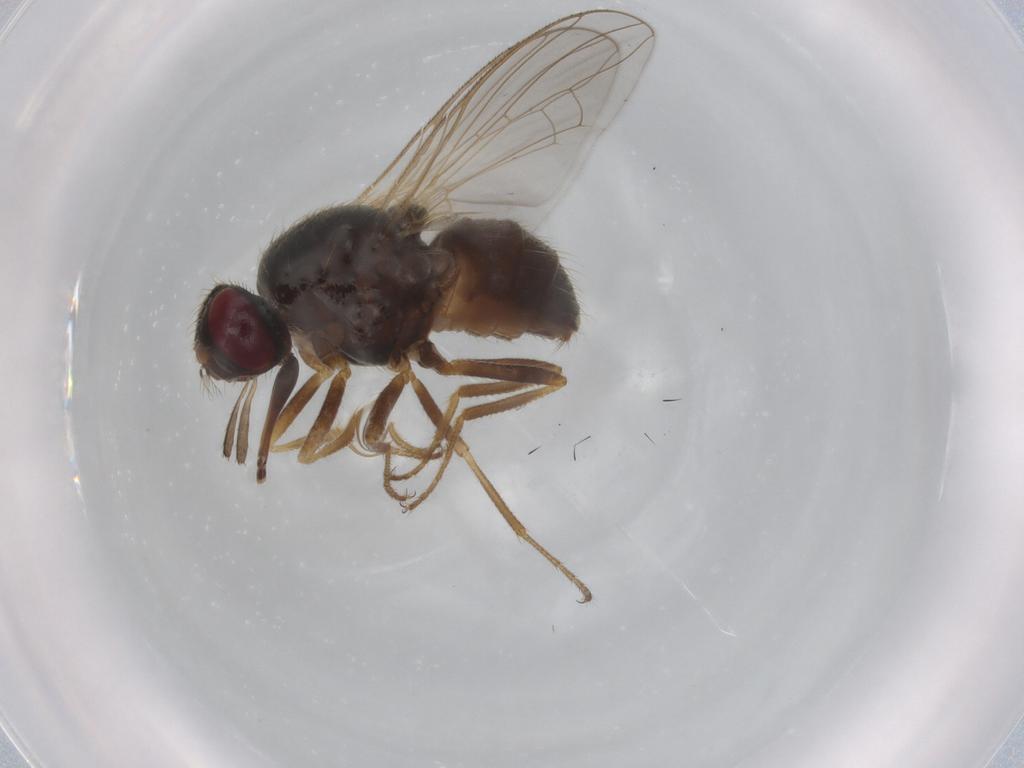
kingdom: Animalia
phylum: Arthropoda
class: Insecta
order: Diptera
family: Muscidae
